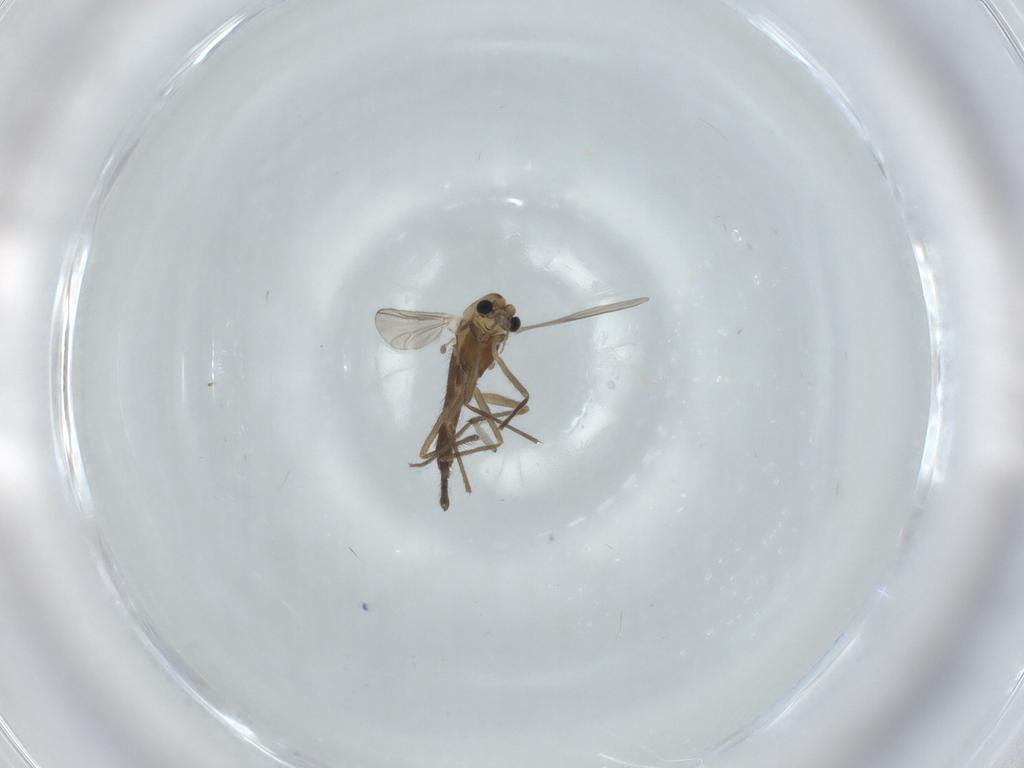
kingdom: Animalia
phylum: Arthropoda
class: Insecta
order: Diptera
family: Chironomidae
